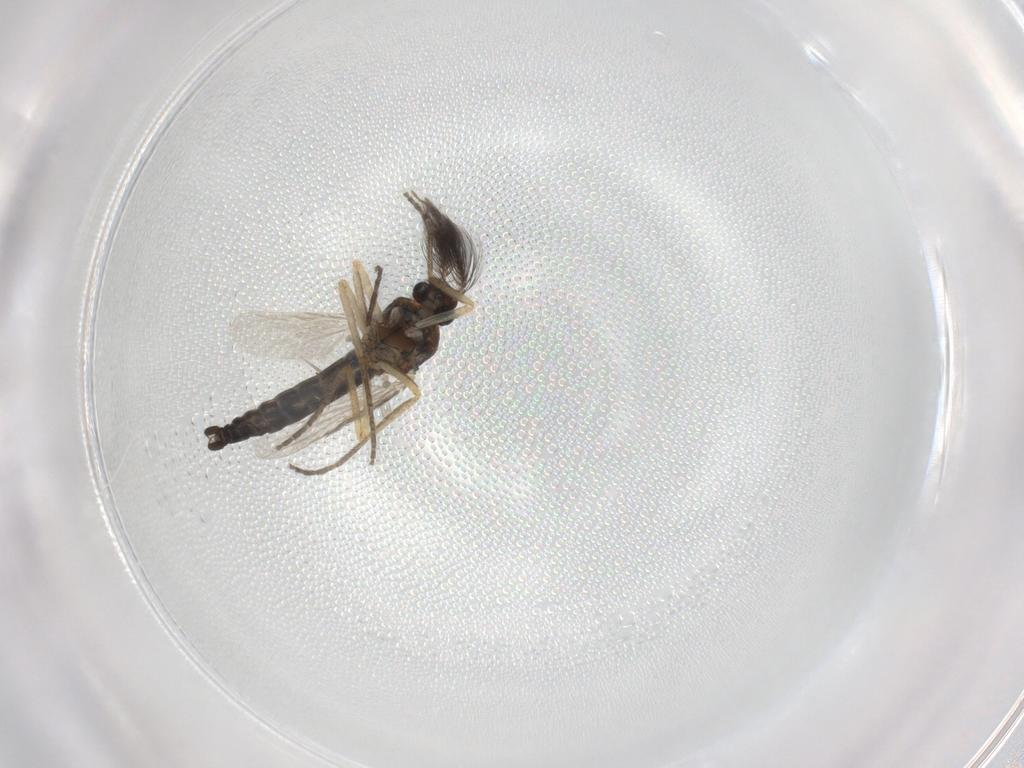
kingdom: Animalia
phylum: Arthropoda
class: Insecta
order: Diptera
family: Ceratopogonidae
